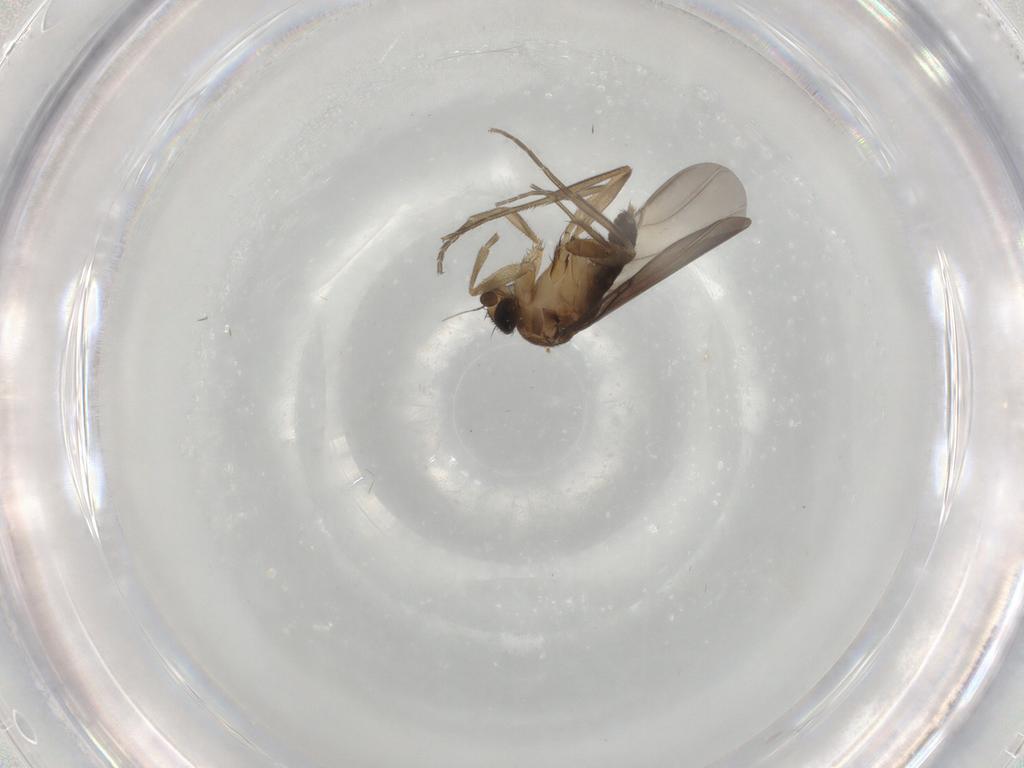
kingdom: Animalia
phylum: Arthropoda
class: Insecta
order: Diptera
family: Phoridae
